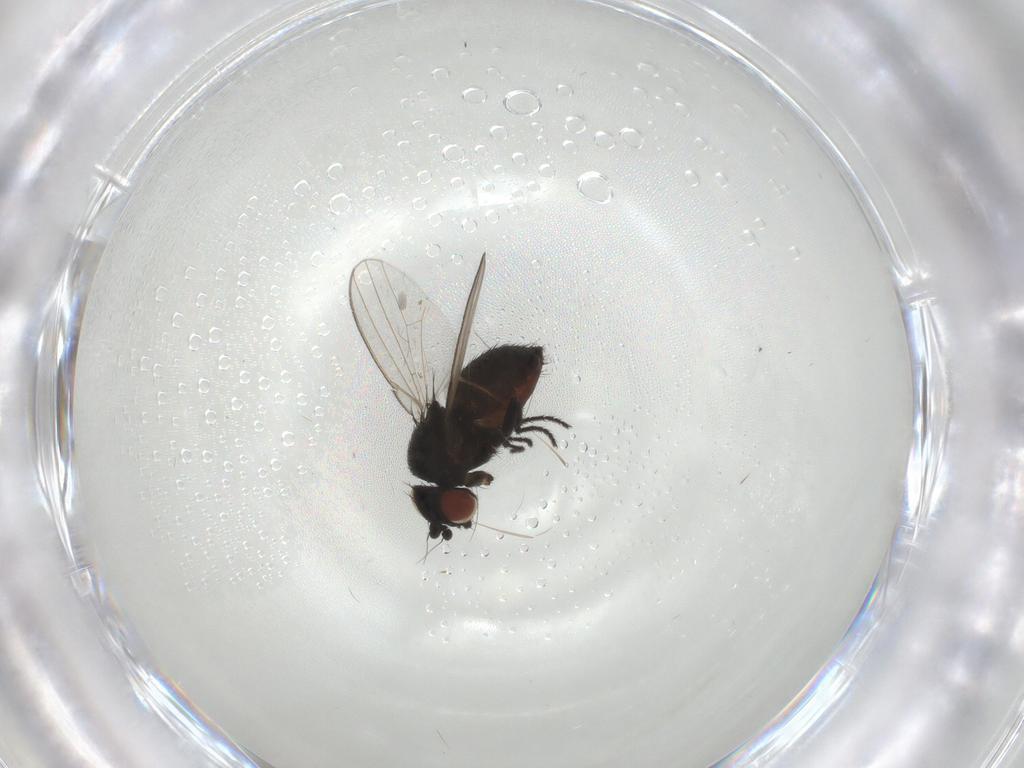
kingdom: Animalia
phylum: Arthropoda
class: Insecta
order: Diptera
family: Milichiidae
